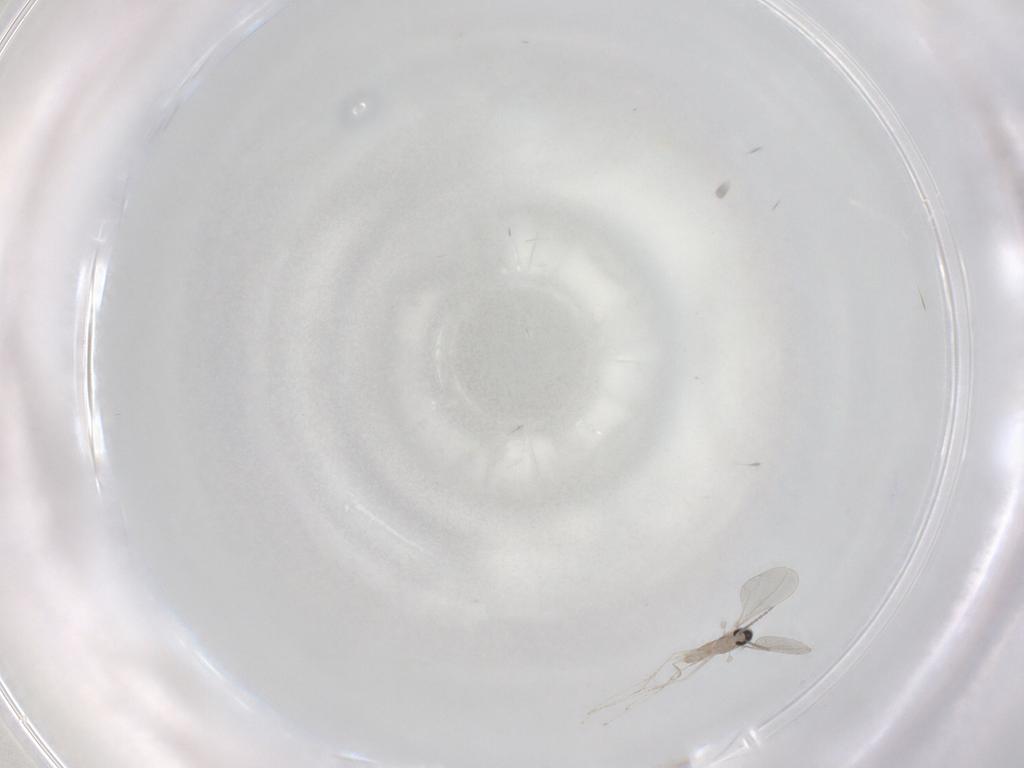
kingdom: Animalia
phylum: Arthropoda
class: Insecta
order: Diptera
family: Cecidomyiidae
